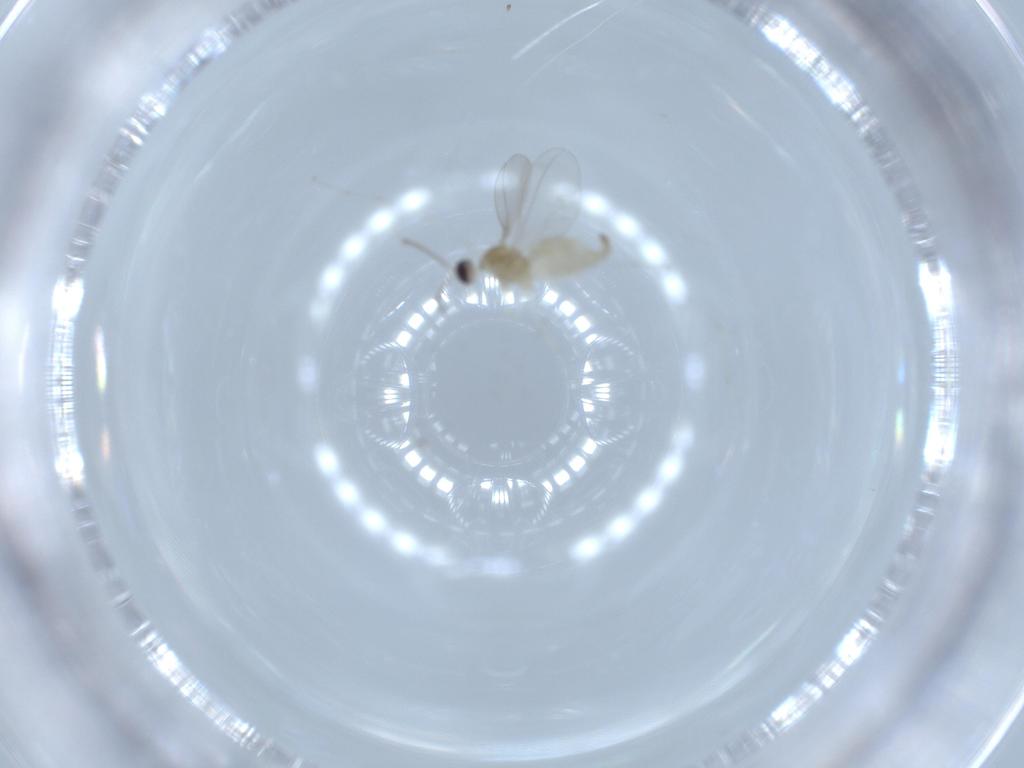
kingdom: Animalia
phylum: Arthropoda
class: Insecta
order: Diptera
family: Cecidomyiidae
